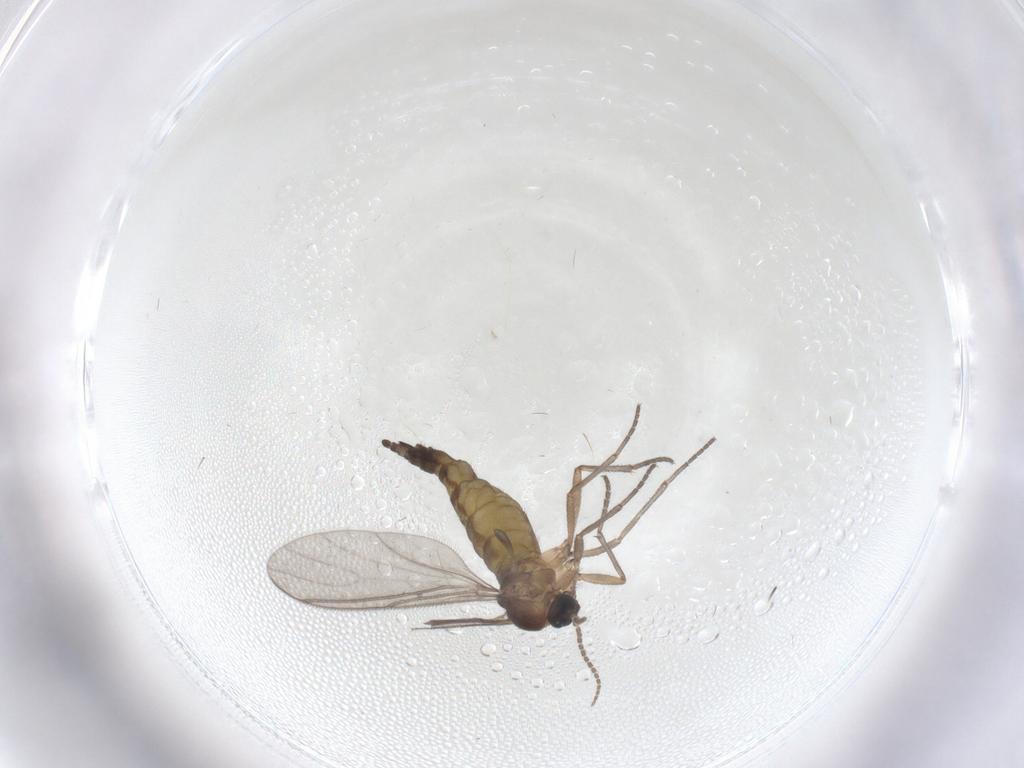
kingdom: Animalia
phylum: Arthropoda
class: Insecta
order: Diptera
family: Sciaridae
